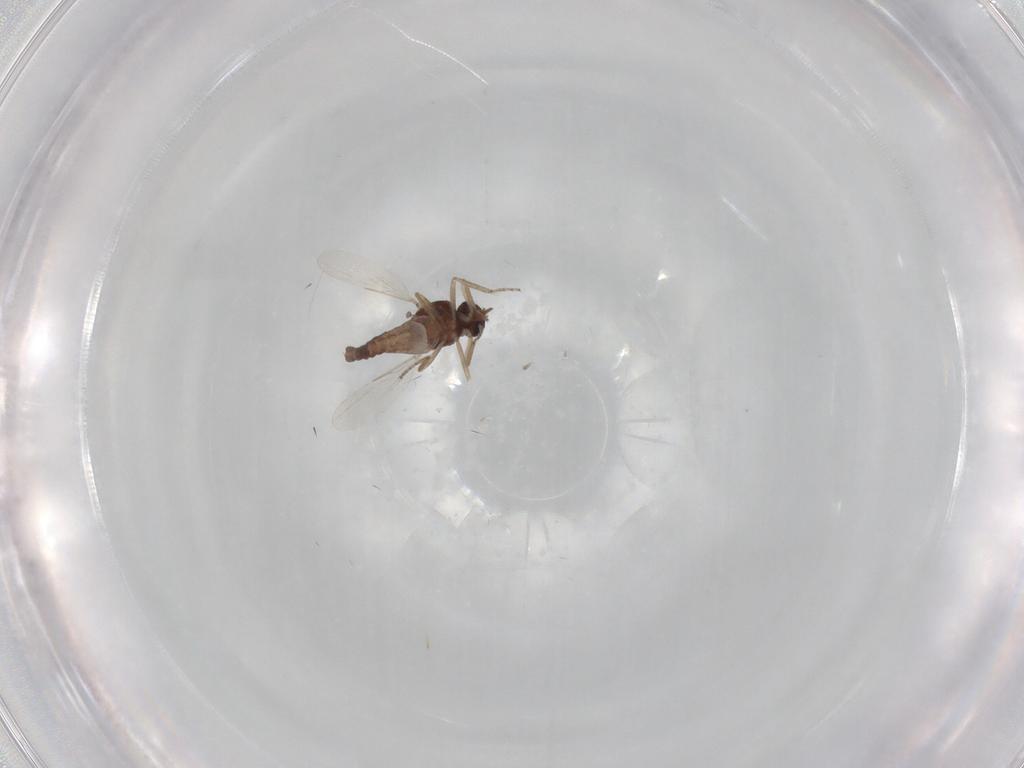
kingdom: Animalia
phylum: Arthropoda
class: Insecta
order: Diptera
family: Ceratopogonidae
